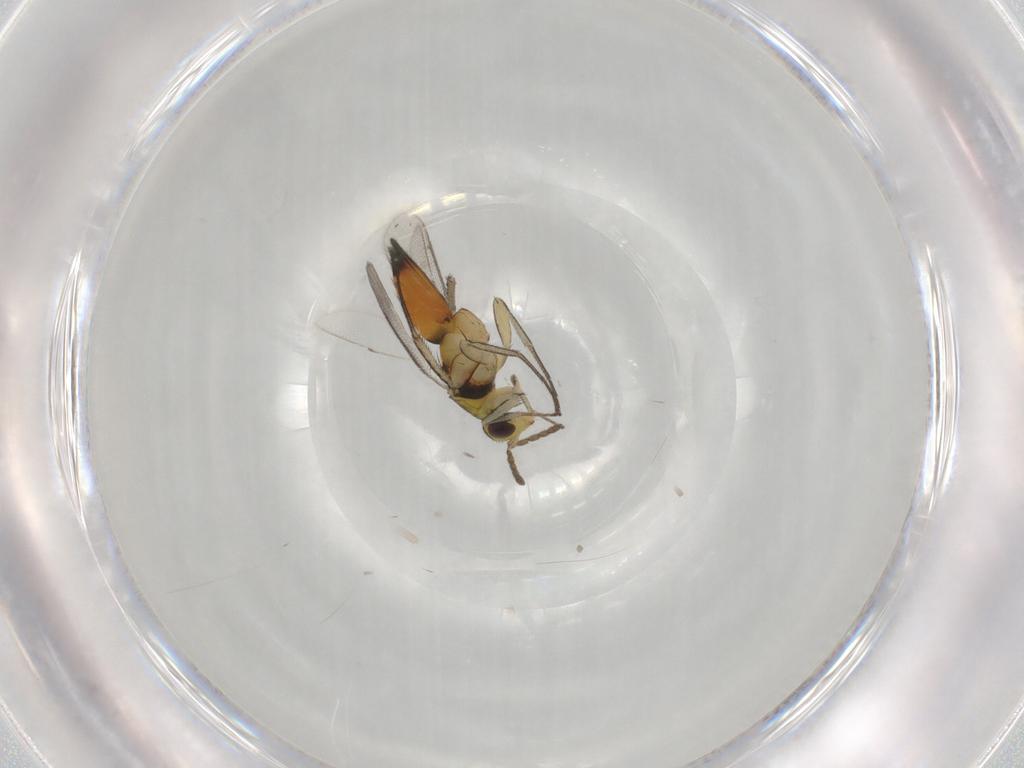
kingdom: Animalia
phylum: Arthropoda
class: Insecta
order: Hymenoptera
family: Eulophidae
